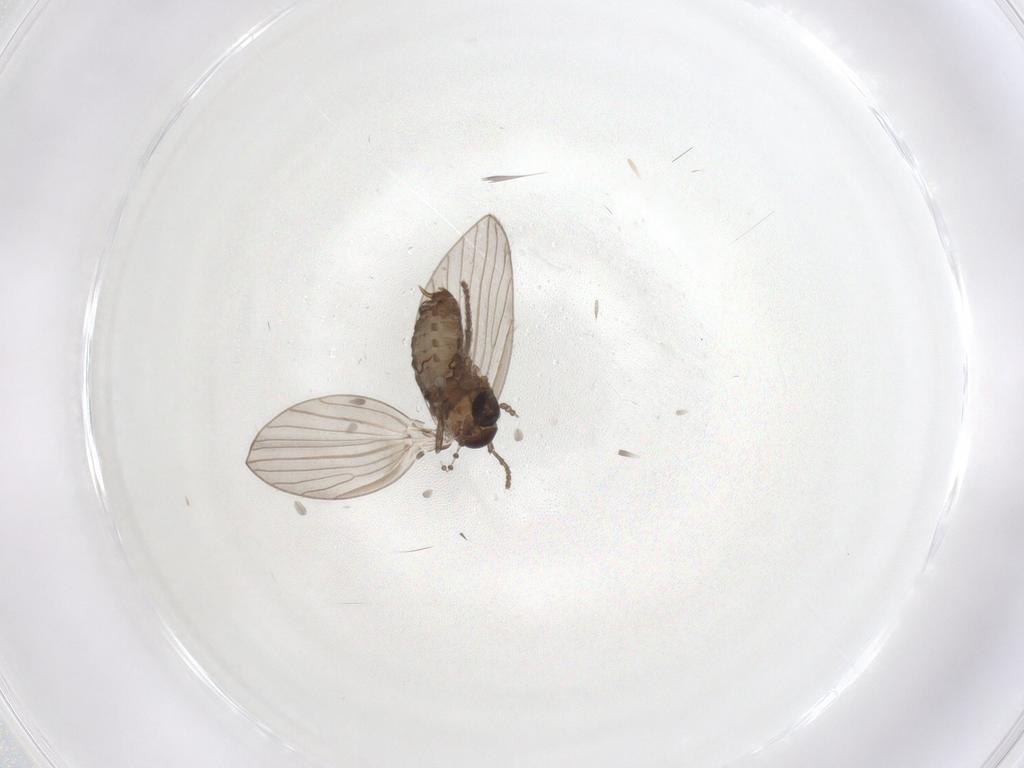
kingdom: Animalia
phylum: Arthropoda
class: Insecta
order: Diptera
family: Psychodidae
